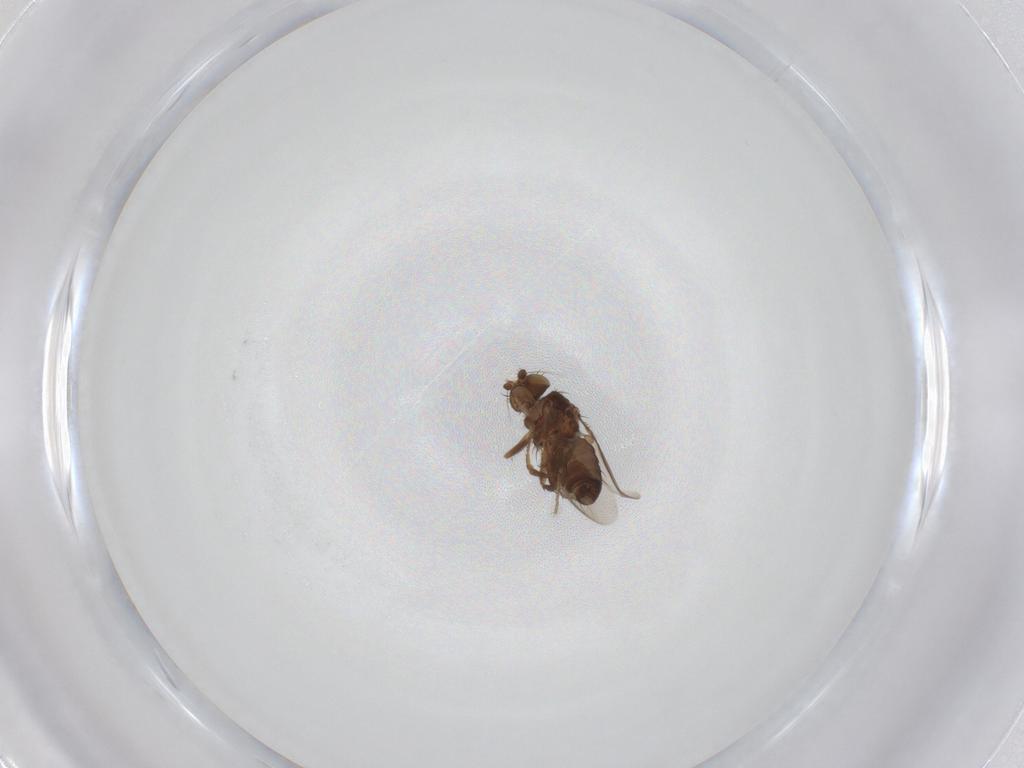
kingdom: Animalia
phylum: Arthropoda
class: Insecta
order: Diptera
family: Sphaeroceridae
